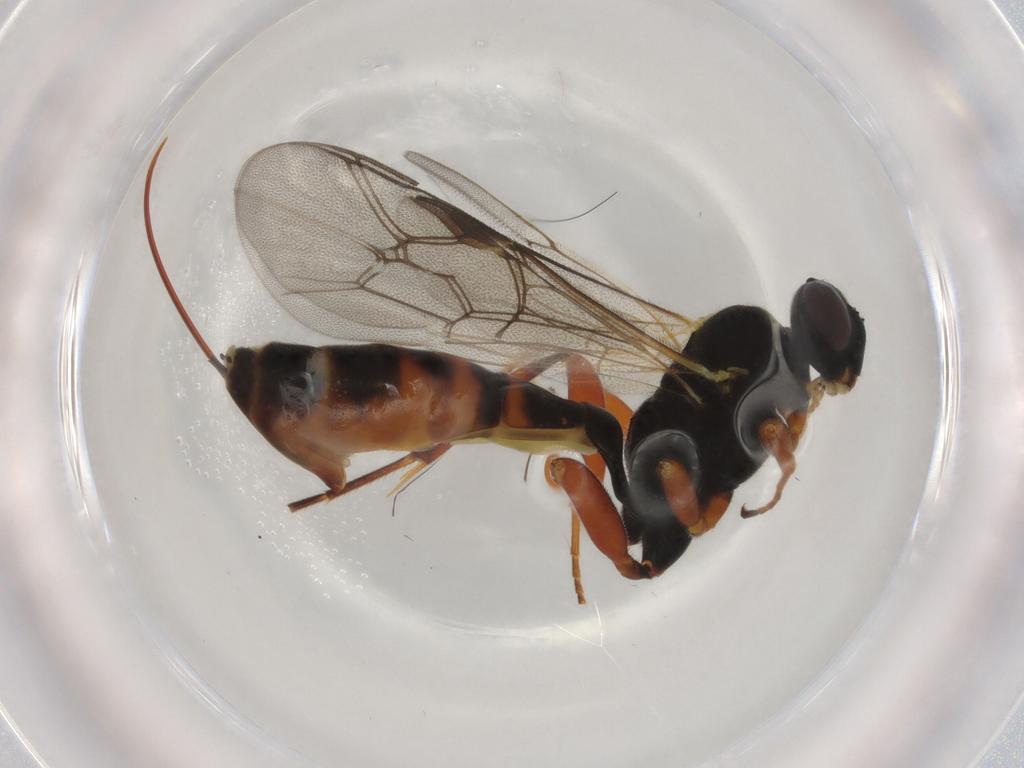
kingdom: Animalia
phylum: Arthropoda
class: Insecta
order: Hymenoptera
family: Ichneumonidae
